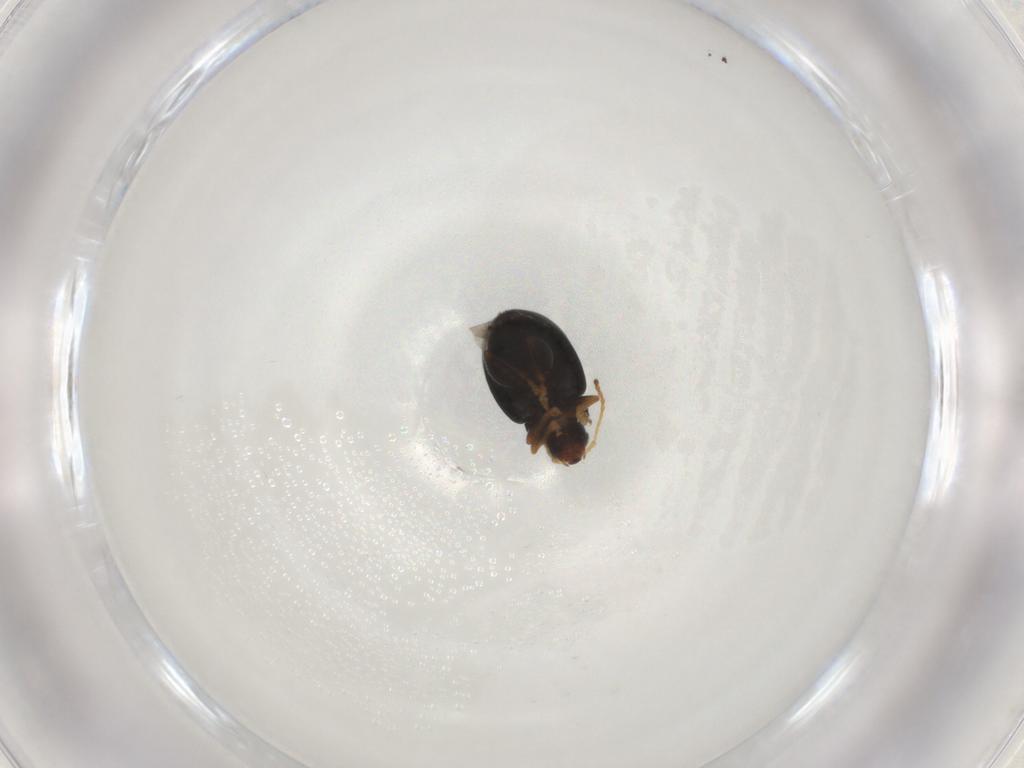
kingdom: Animalia
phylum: Arthropoda
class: Insecta
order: Coleoptera
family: Chrysomelidae
